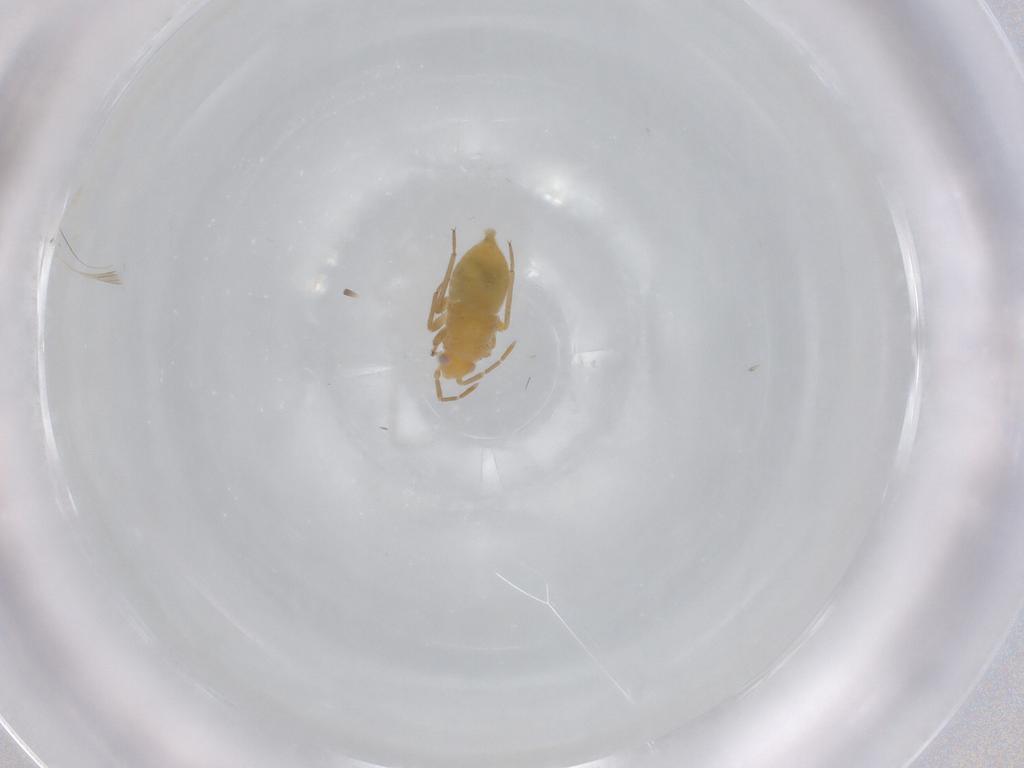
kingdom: Animalia
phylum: Arthropoda
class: Insecta
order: Hemiptera
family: Miridae
